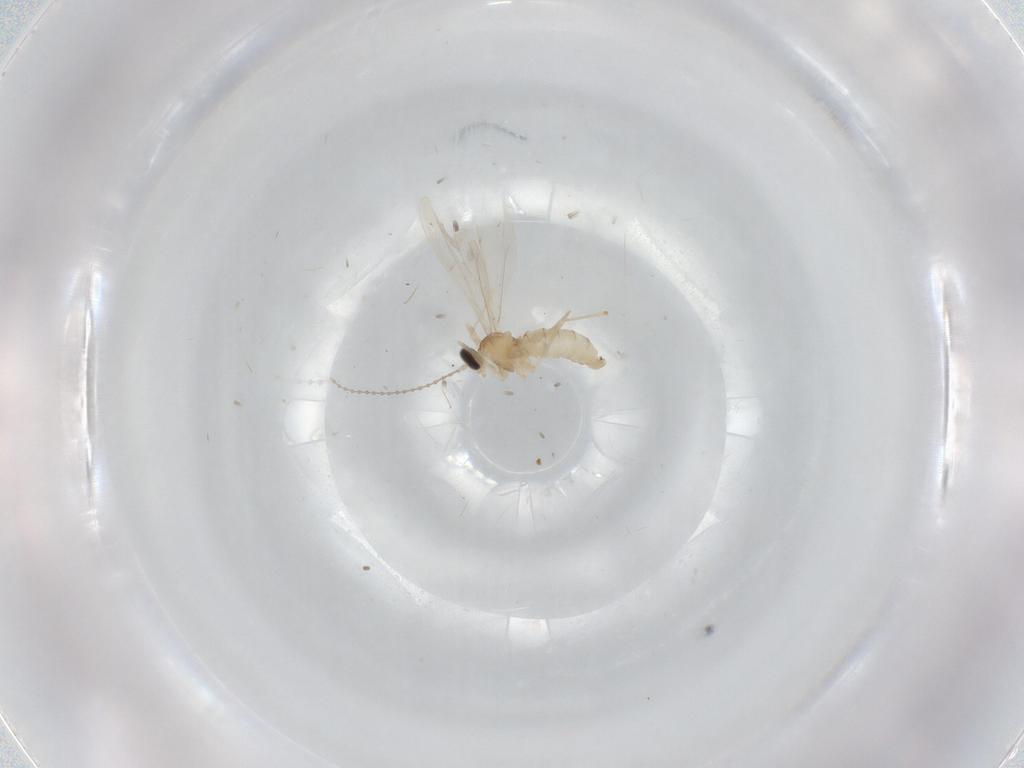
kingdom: Animalia
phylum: Arthropoda
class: Insecta
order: Diptera
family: Cecidomyiidae
